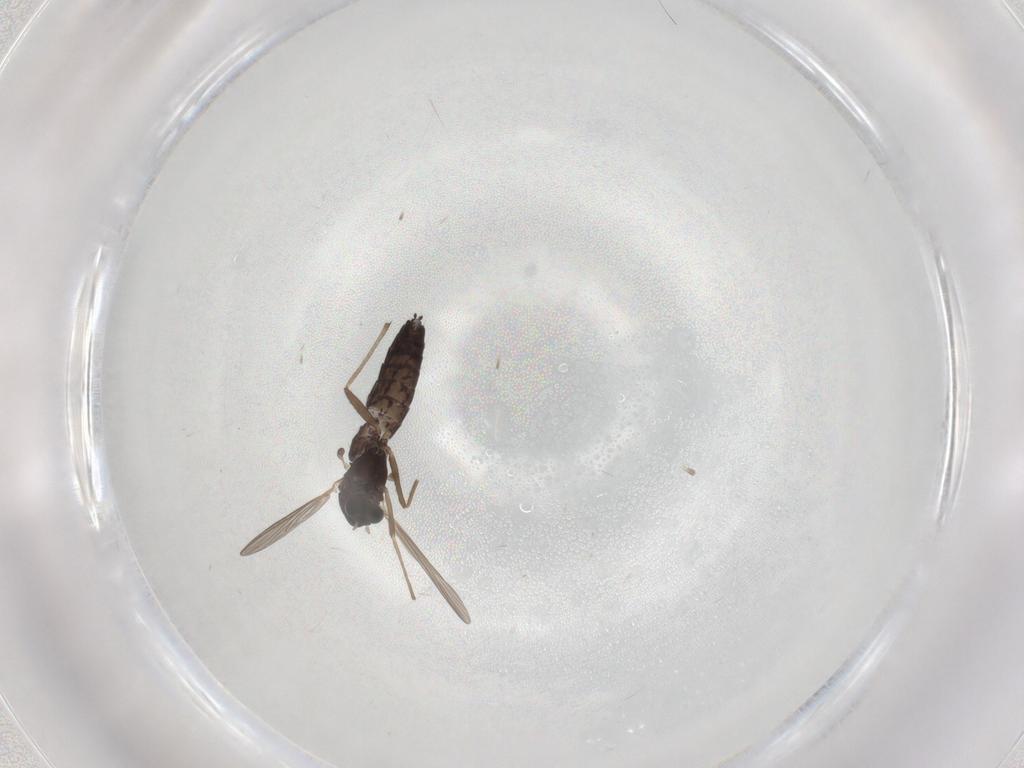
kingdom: Animalia
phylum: Arthropoda
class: Insecta
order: Diptera
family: Chironomidae
